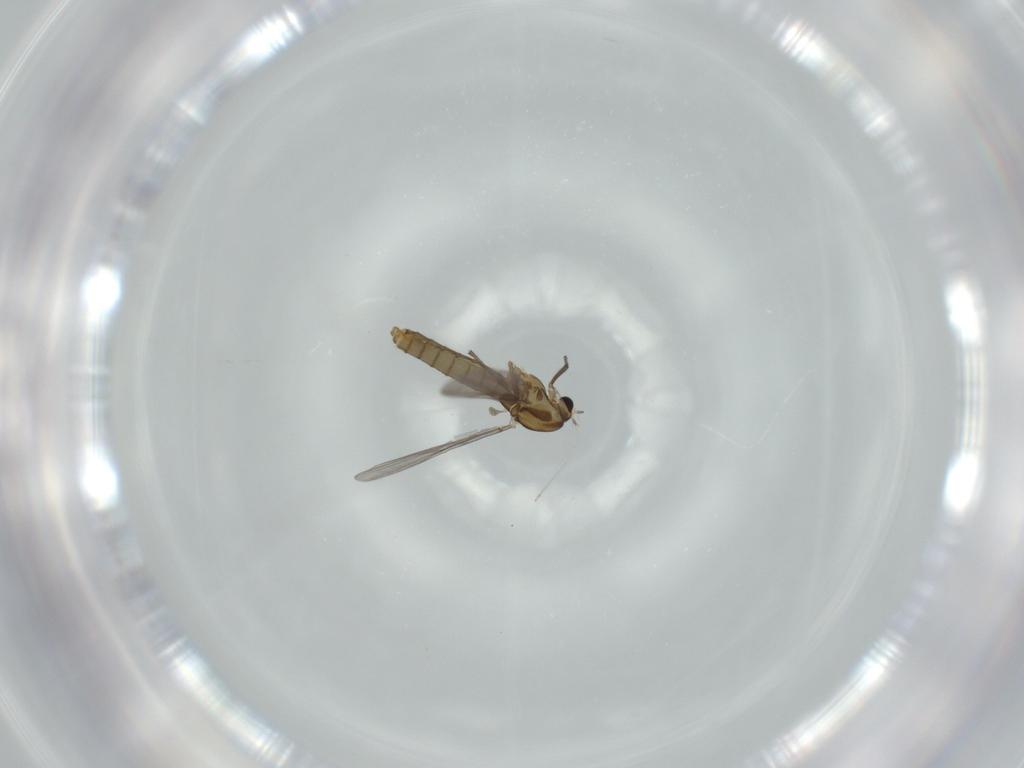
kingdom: Animalia
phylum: Arthropoda
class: Insecta
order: Diptera
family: Chironomidae
